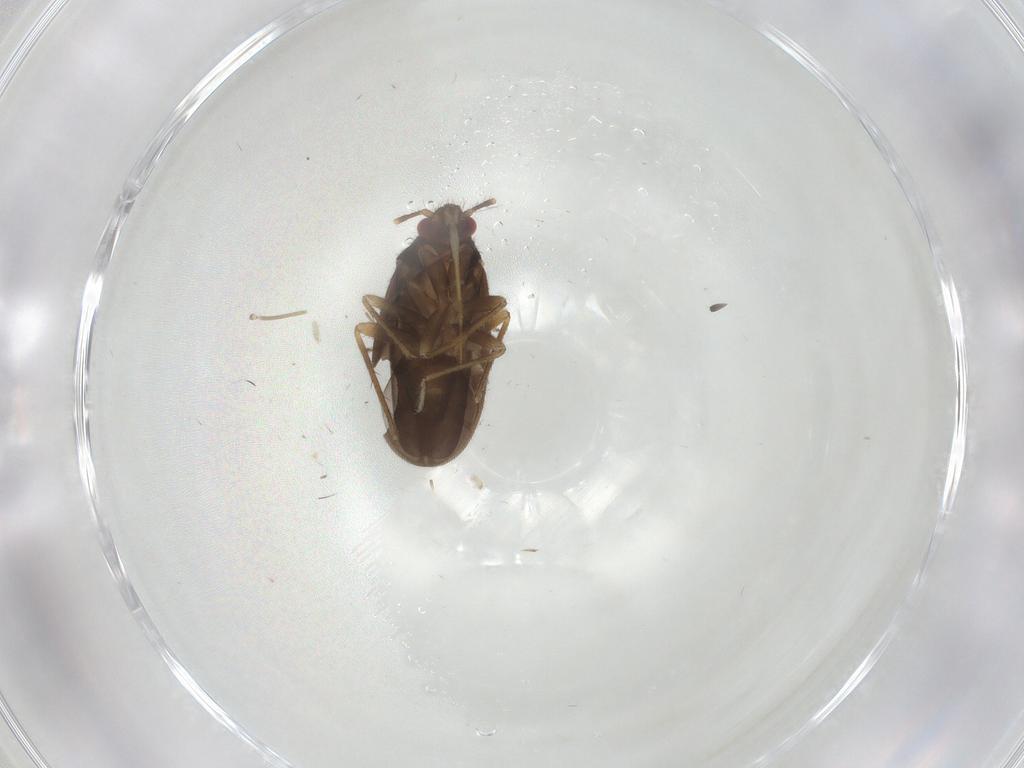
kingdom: Animalia
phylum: Arthropoda
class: Insecta
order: Hemiptera
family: Ceratocombidae
